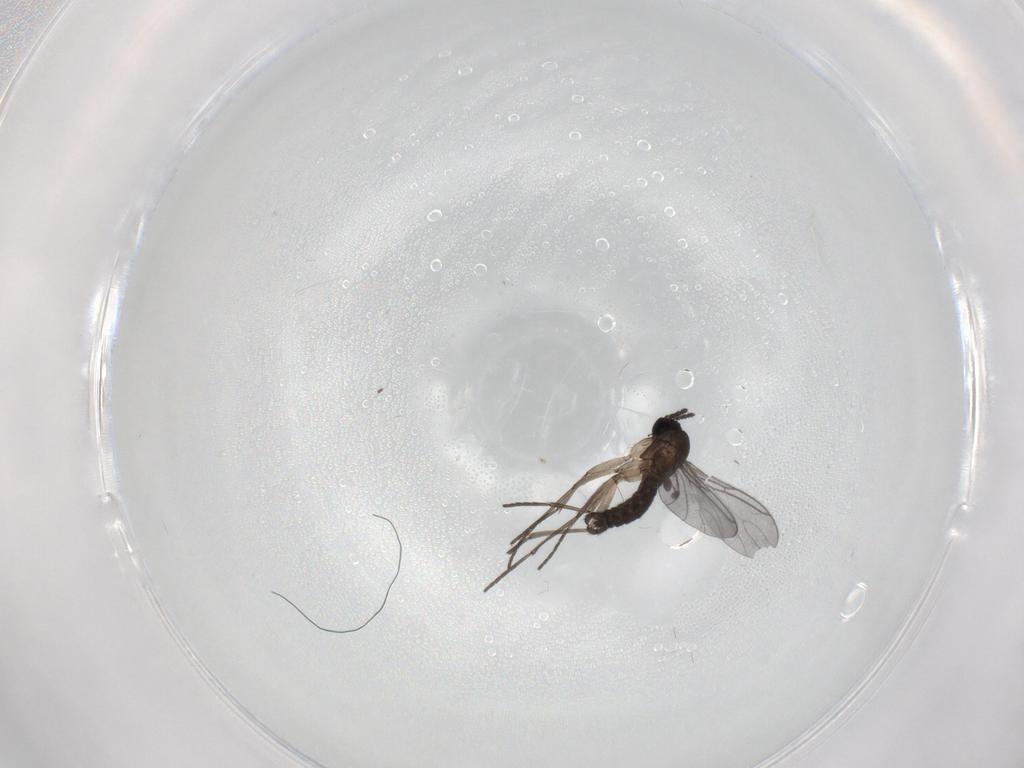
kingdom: Animalia
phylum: Arthropoda
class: Insecta
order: Diptera
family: Sciaridae
